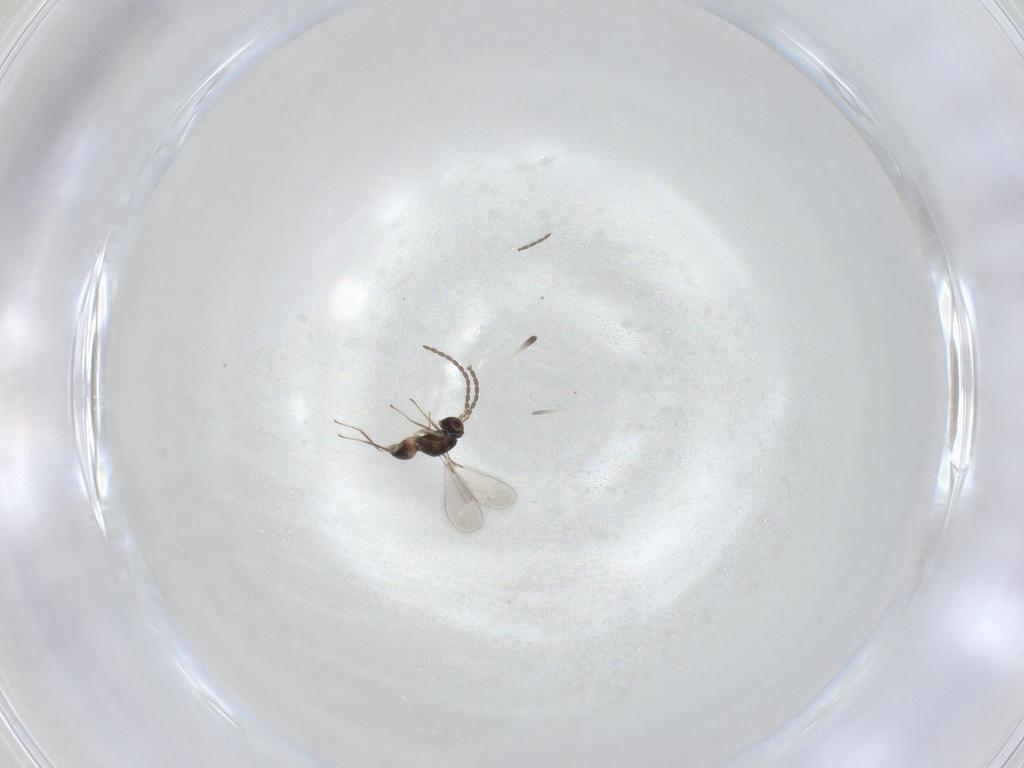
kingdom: Animalia
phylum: Arthropoda
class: Insecta
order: Hymenoptera
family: Mymaridae
